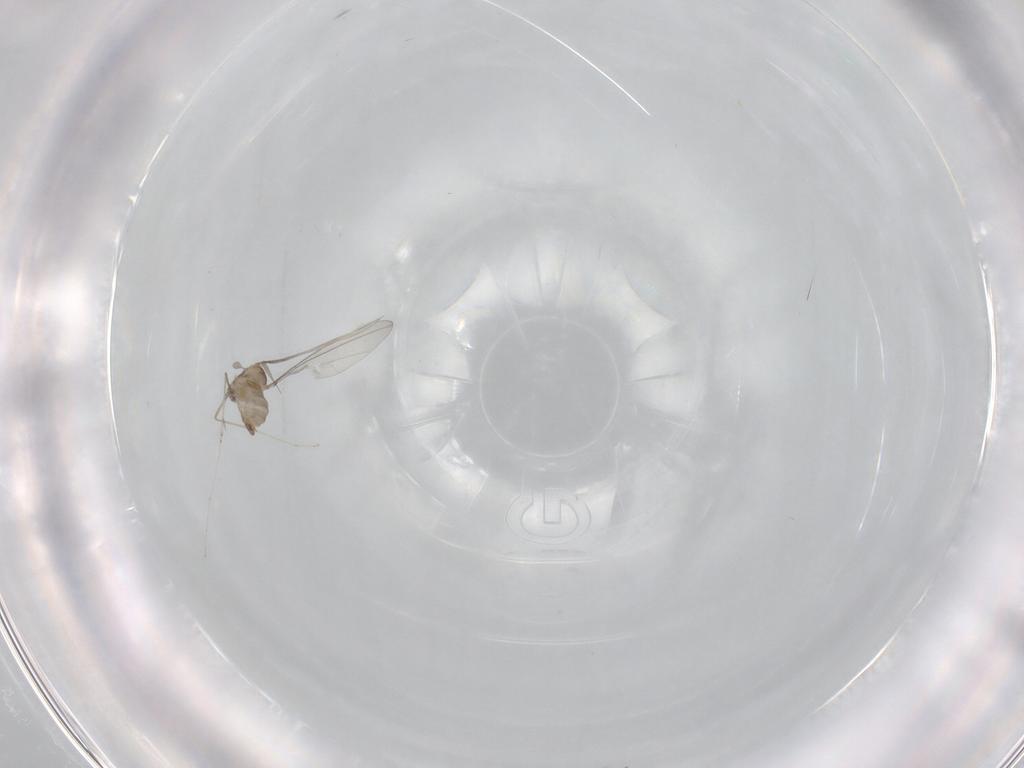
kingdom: Animalia
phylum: Arthropoda
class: Insecta
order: Diptera
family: Cecidomyiidae
